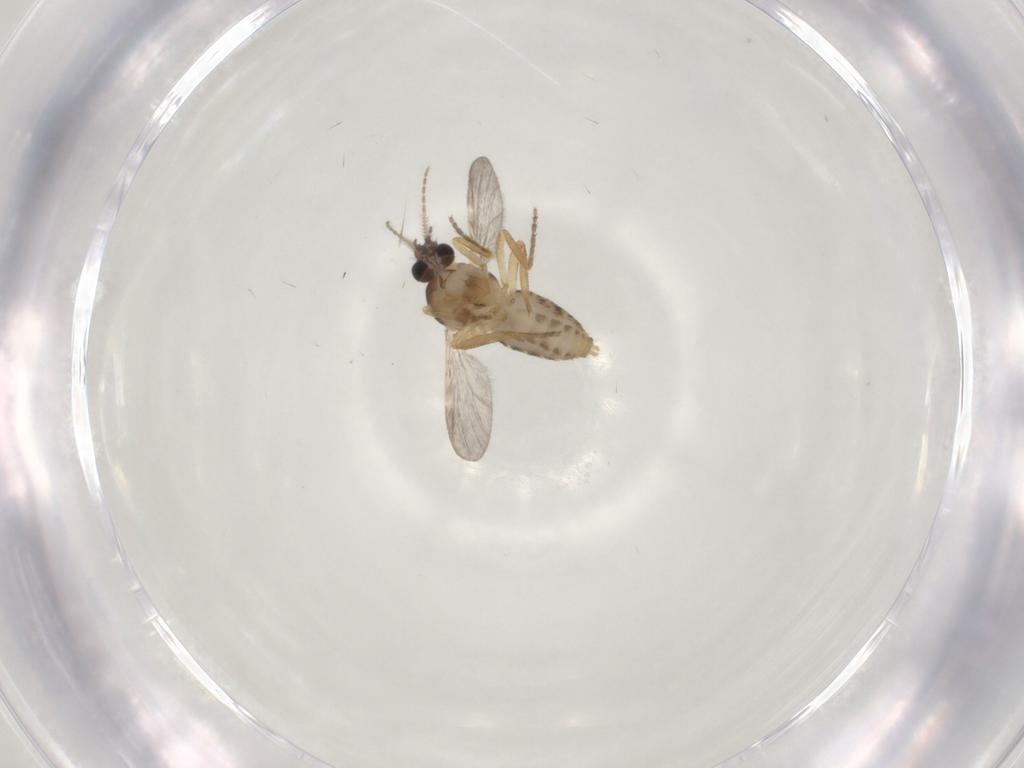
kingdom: Animalia
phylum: Arthropoda
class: Insecta
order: Diptera
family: Ceratopogonidae
